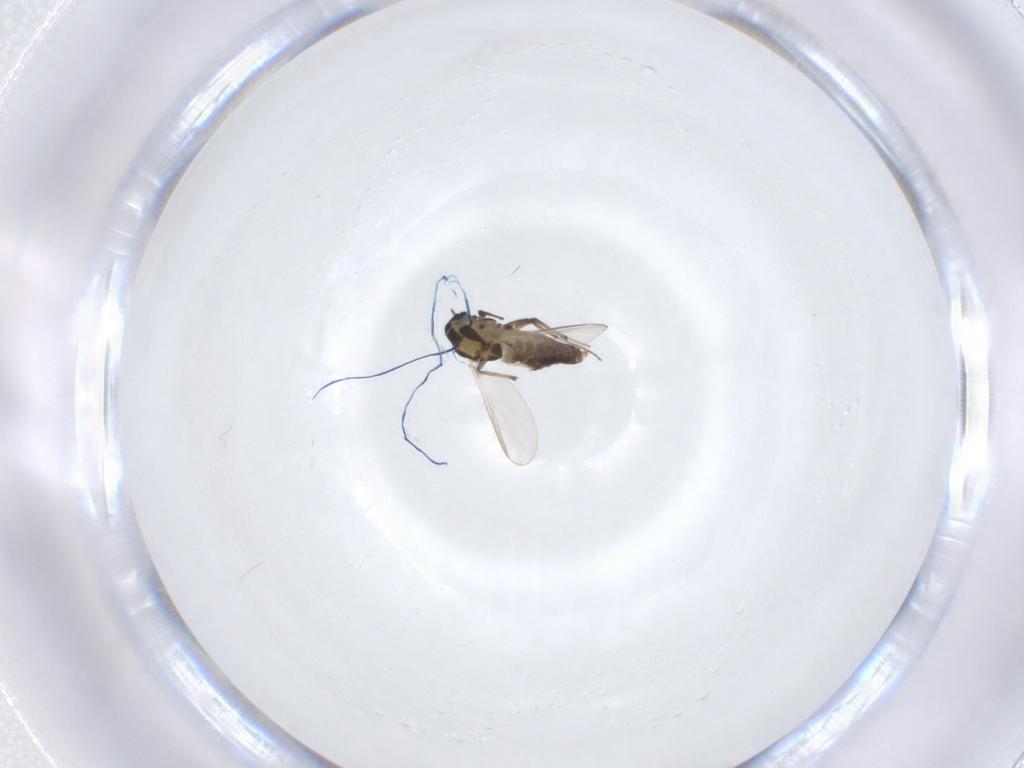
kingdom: Animalia
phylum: Arthropoda
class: Insecta
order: Diptera
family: Chironomidae
